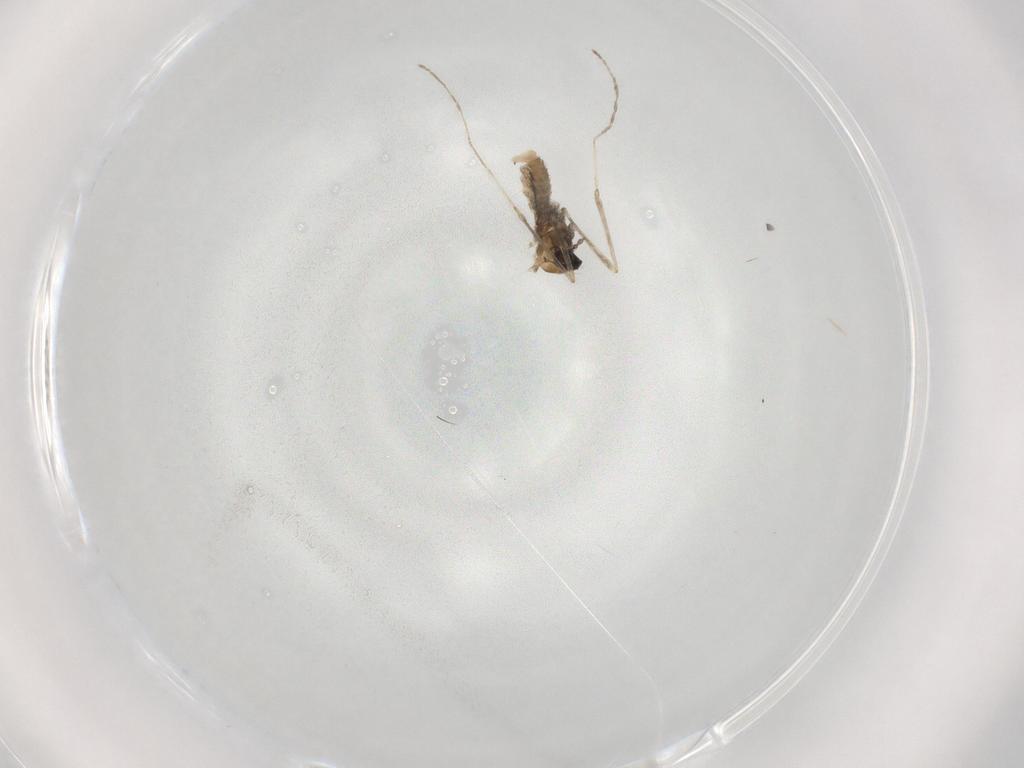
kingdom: Animalia
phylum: Arthropoda
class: Insecta
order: Diptera
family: Cecidomyiidae
